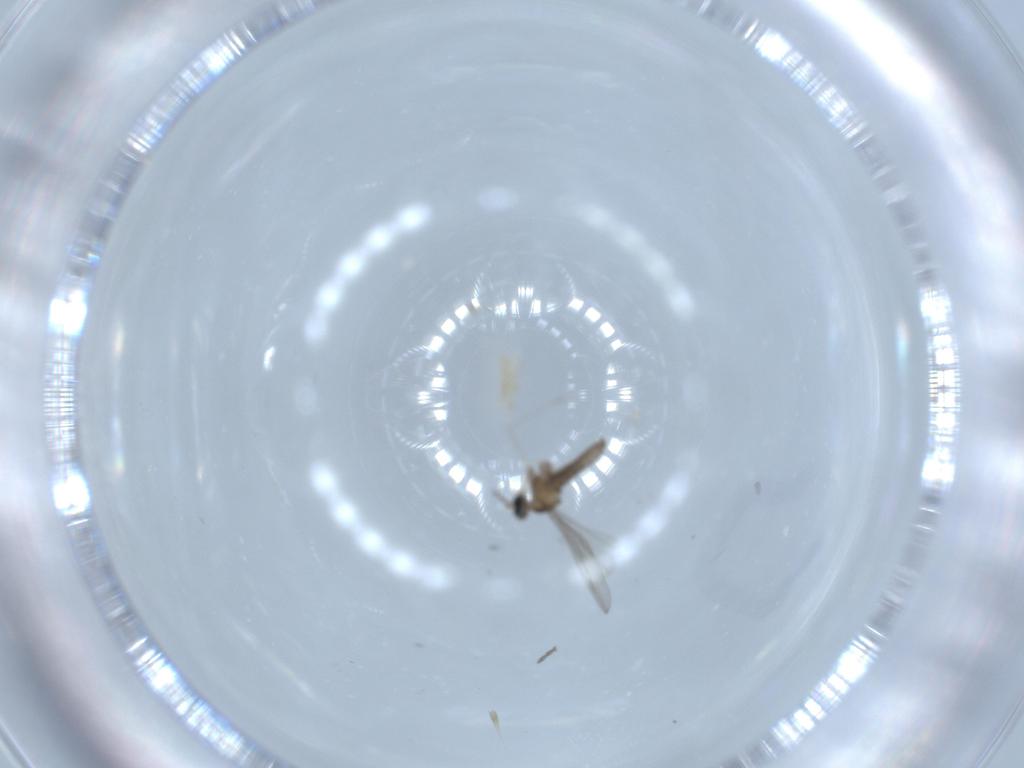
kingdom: Animalia
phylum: Arthropoda
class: Insecta
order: Diptera
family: Cecidomyiidae
